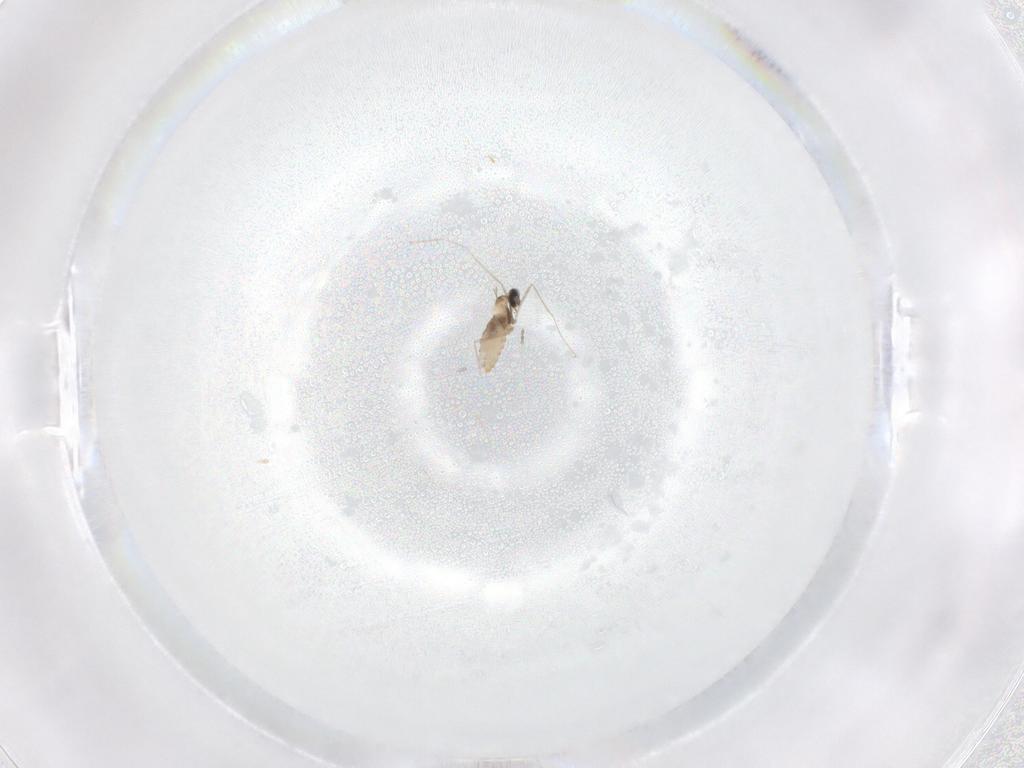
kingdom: Animalia
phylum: Arthropoda
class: Insecta
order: Diptera
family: Cecidomyiidae
